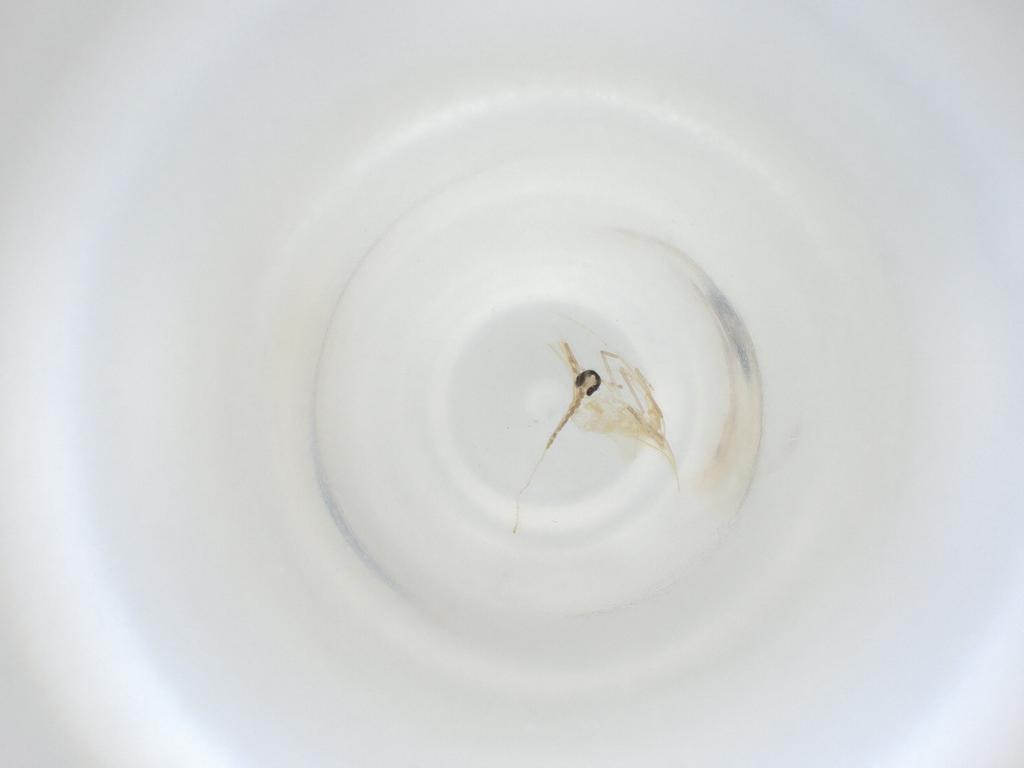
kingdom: Animalia
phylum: Arthropoda
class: Insecta
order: Diptera
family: Cecidomyiidae
